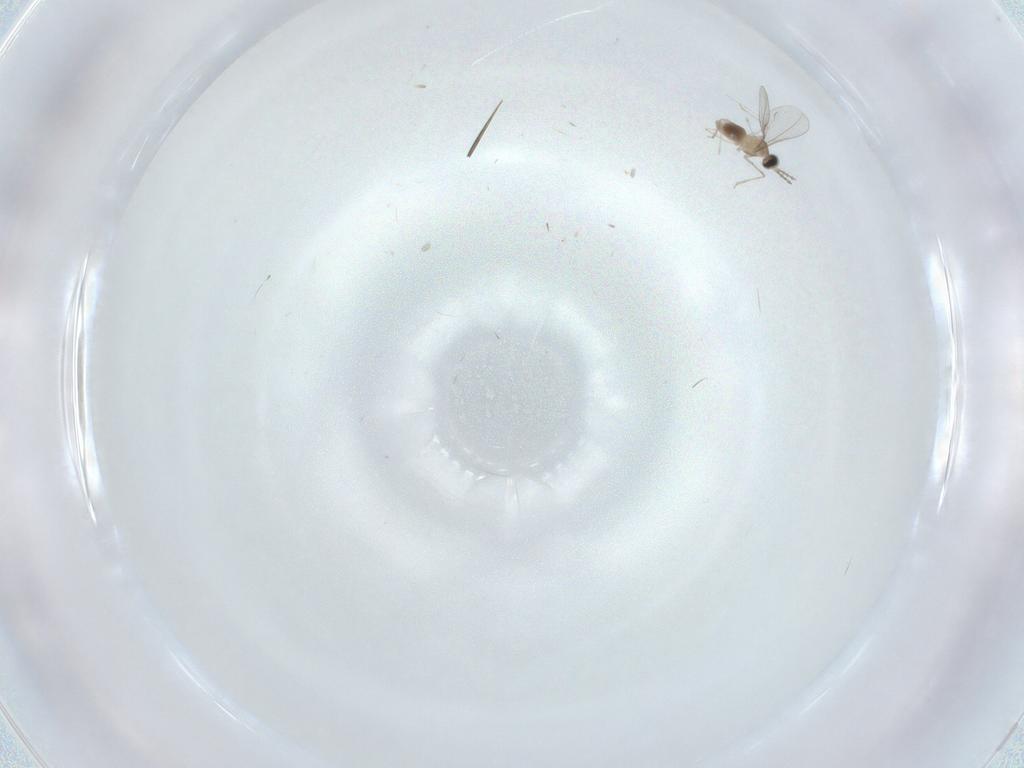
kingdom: Animalia
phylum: Arthropoda
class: Insecta
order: Diptera
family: Cecidomyiidae
